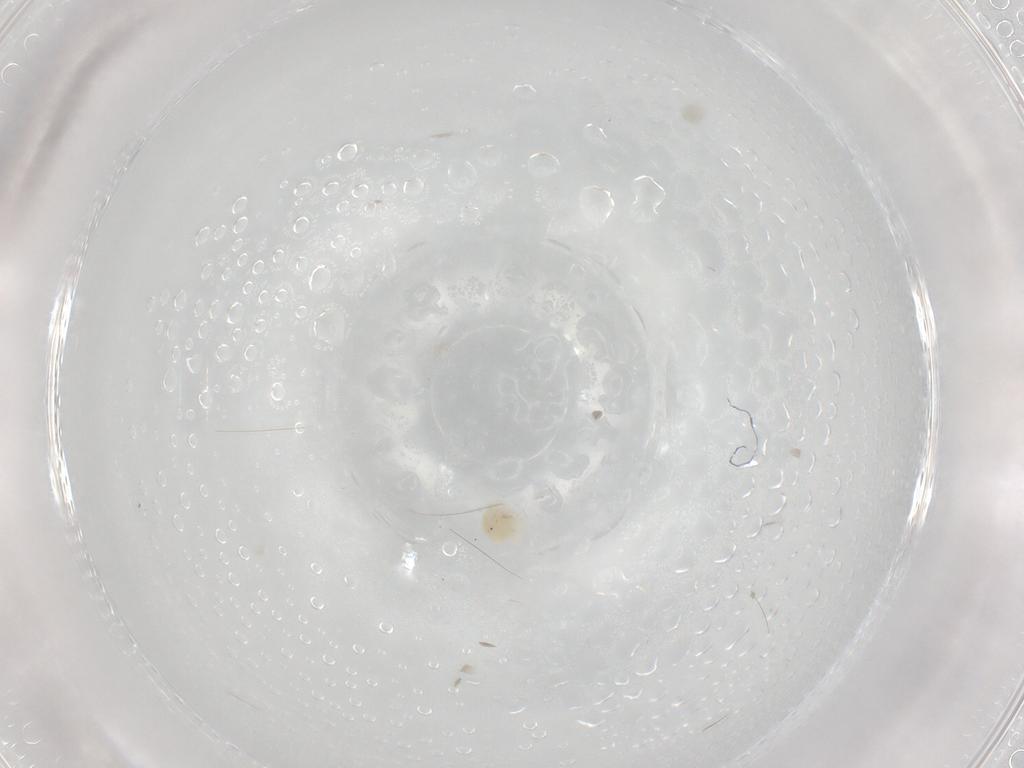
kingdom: Animalia
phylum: Arthropoda
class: Arachnida
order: Trombidiformes
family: Anystidae
